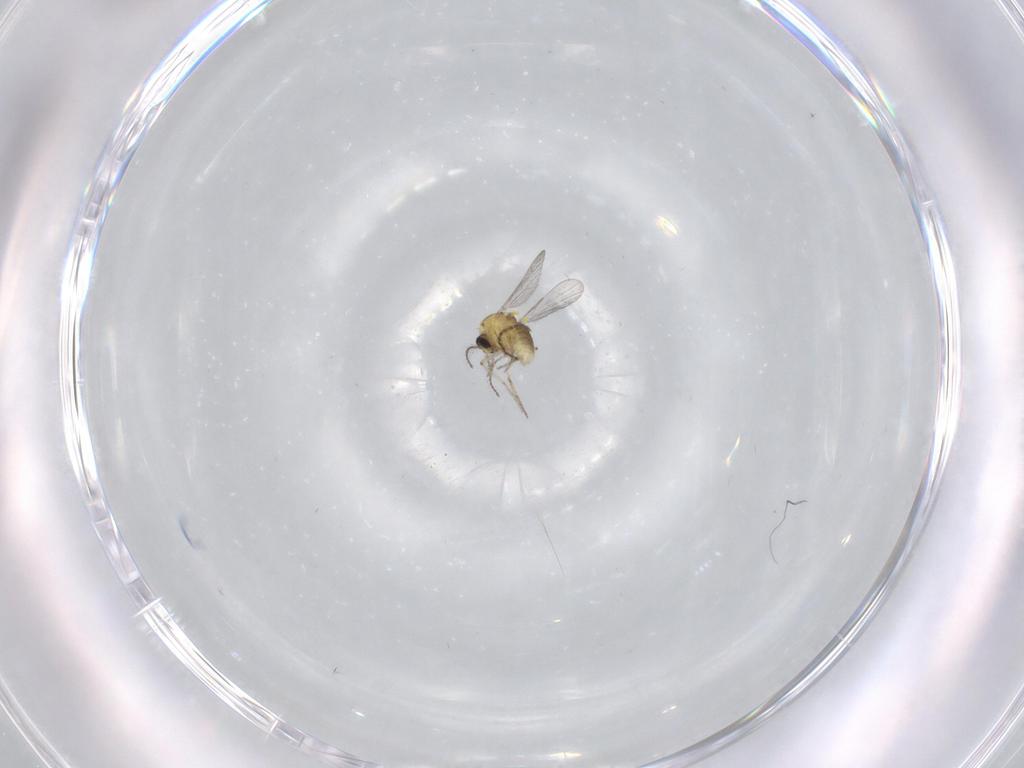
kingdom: Animalia
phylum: Arthropoda
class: Insecta
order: Diptera
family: Ceratopogonidae
